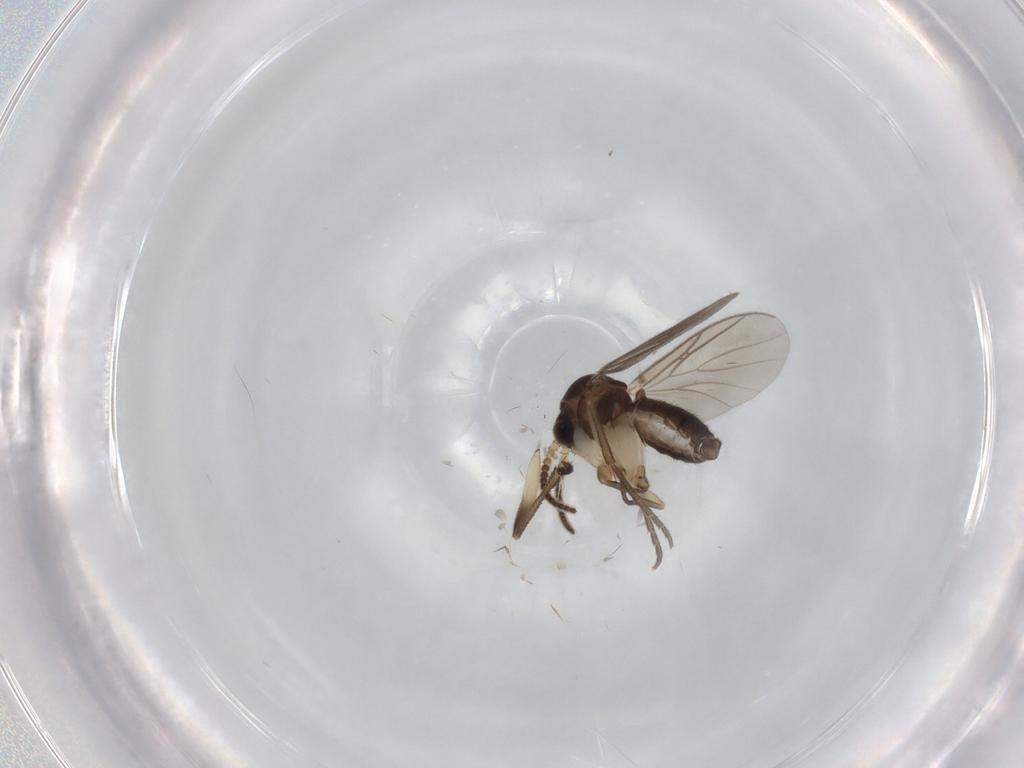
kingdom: Animalia
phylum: Arthropoda
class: Insecta
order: Diptera
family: Mycetophilidae
